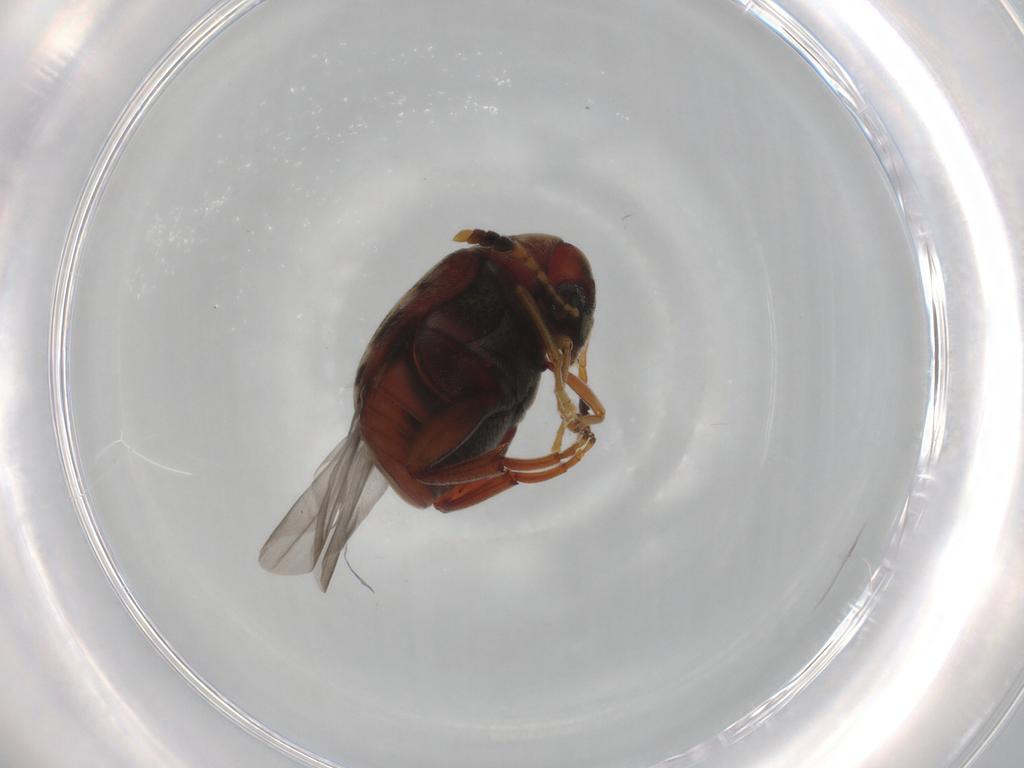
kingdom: Animalia
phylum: Arthropoda
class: Insecta
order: Coleoptera
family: Chrysomelidae
